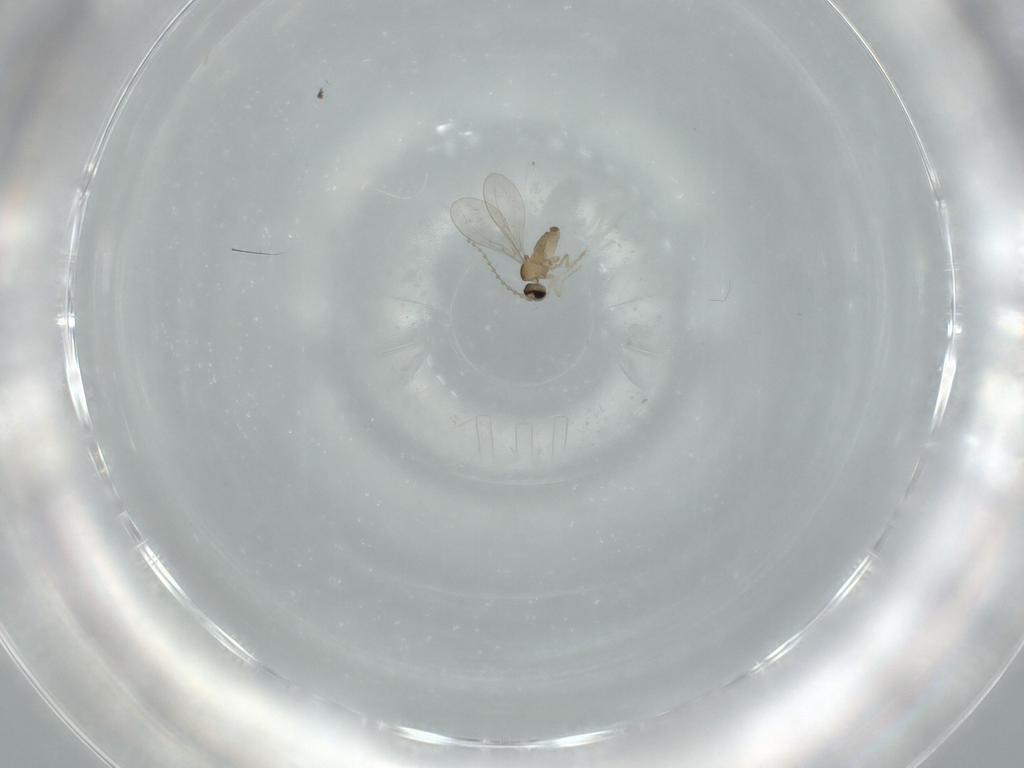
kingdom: Animalia
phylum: Arthropoda
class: Insecta
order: Diptera
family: Cecidomyiidae
